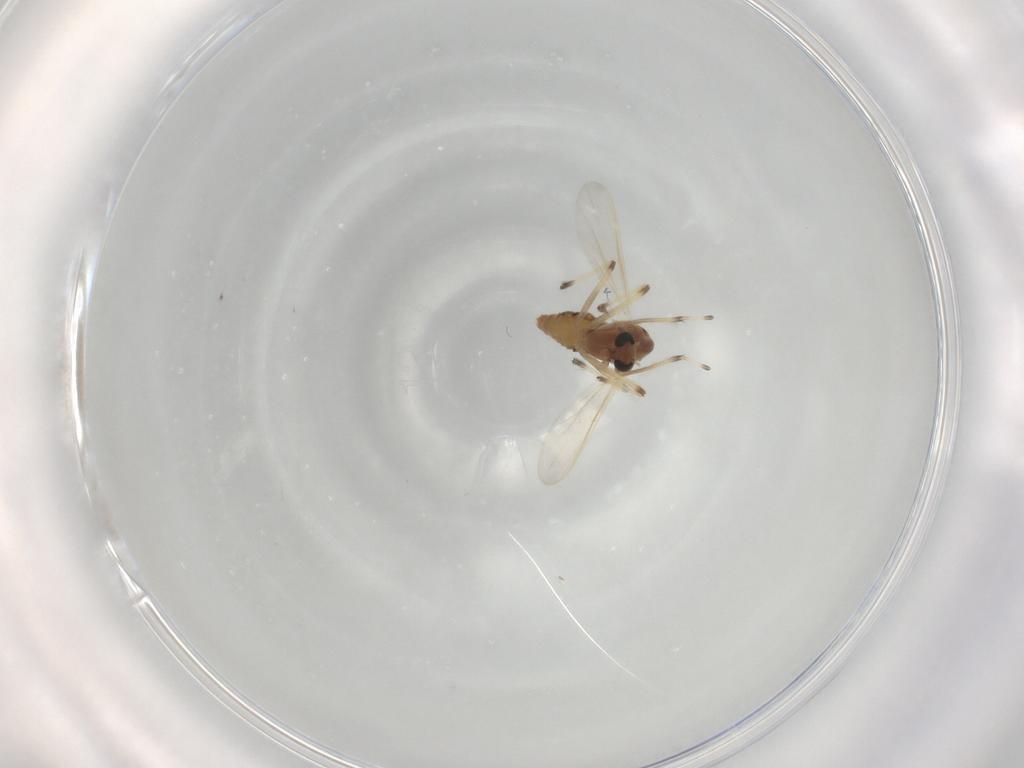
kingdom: Animalia
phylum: Arthropoda
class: Insecta
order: Diptera
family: Chironomidae
